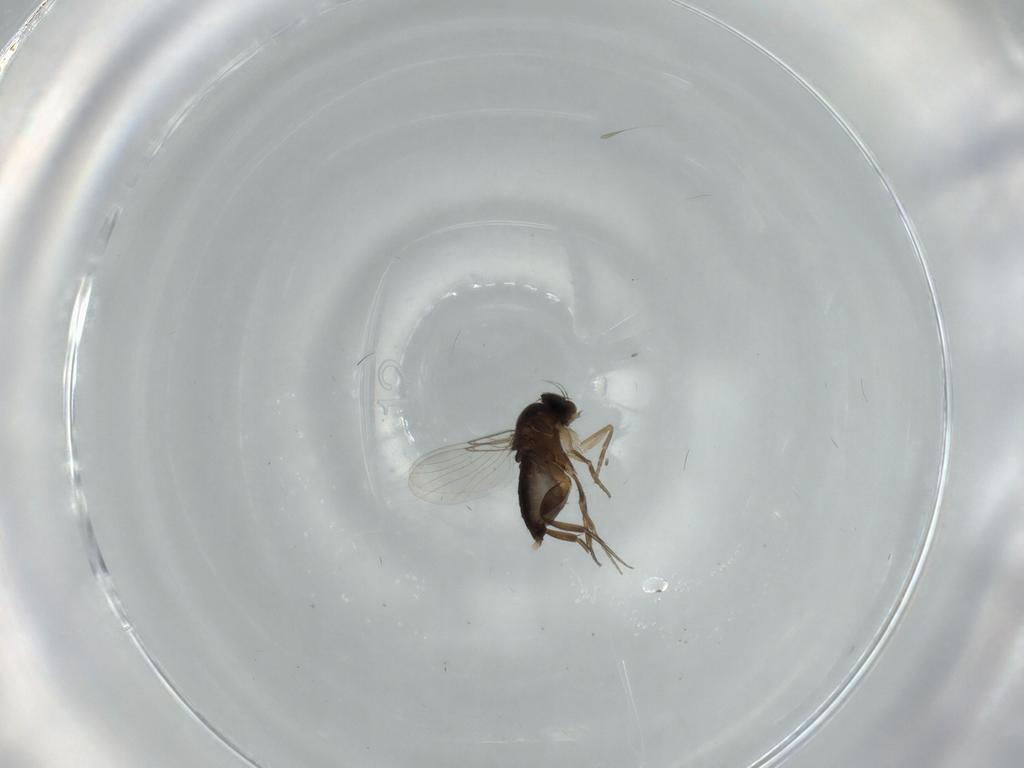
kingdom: Animalia
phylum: Arthropoda
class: Insecta
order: Diptera
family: Phoridae
